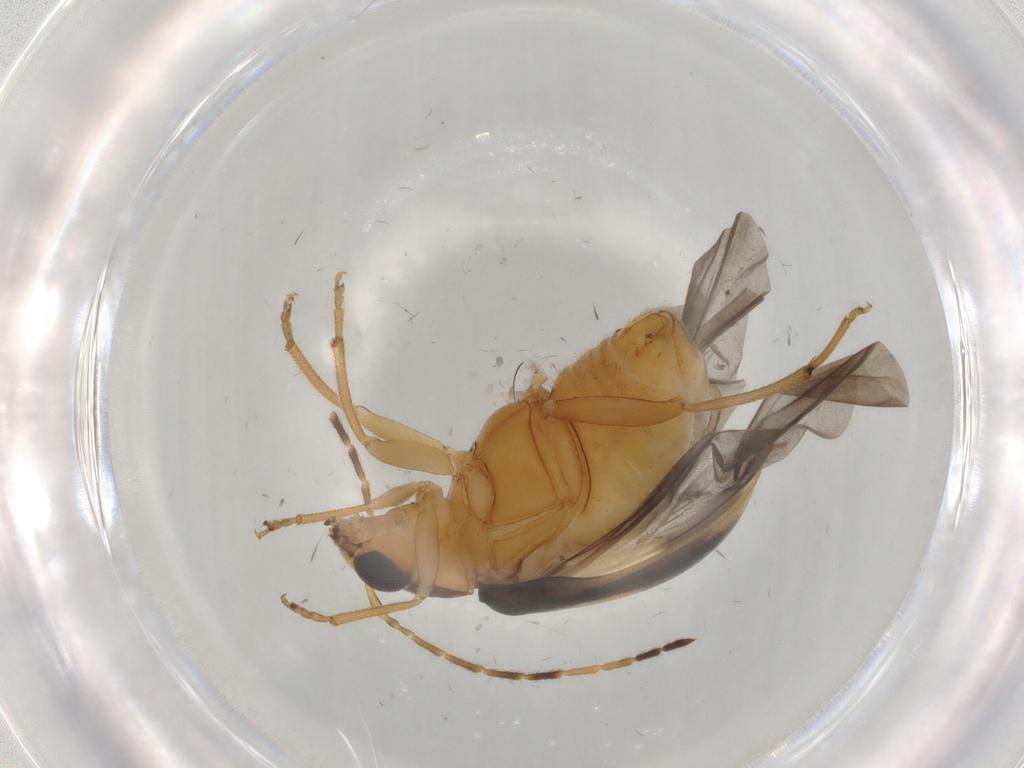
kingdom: Animalia
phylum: Arthropoda
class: Insecta
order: Coleoptera
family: Chrysomelidae
